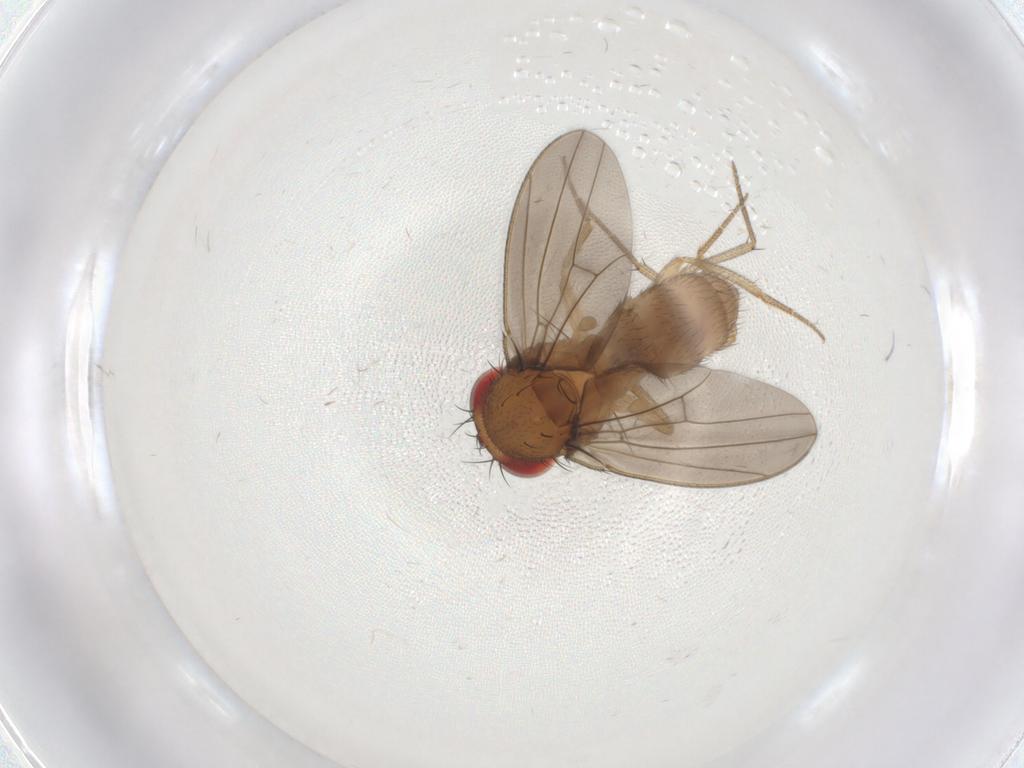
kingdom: Animalia
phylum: Arthropoda
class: Insecta
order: Diptera
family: Drosophilidae
